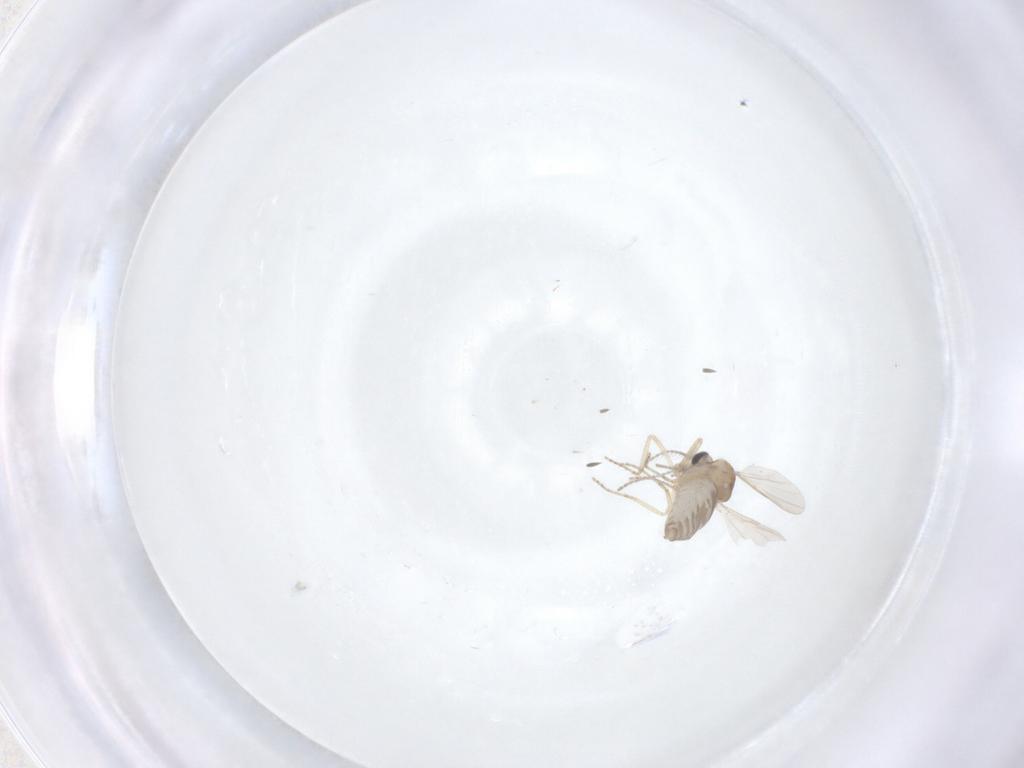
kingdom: Animalia
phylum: Arthropoda
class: Insecta
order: Diptera
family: Ceratopogonidae
